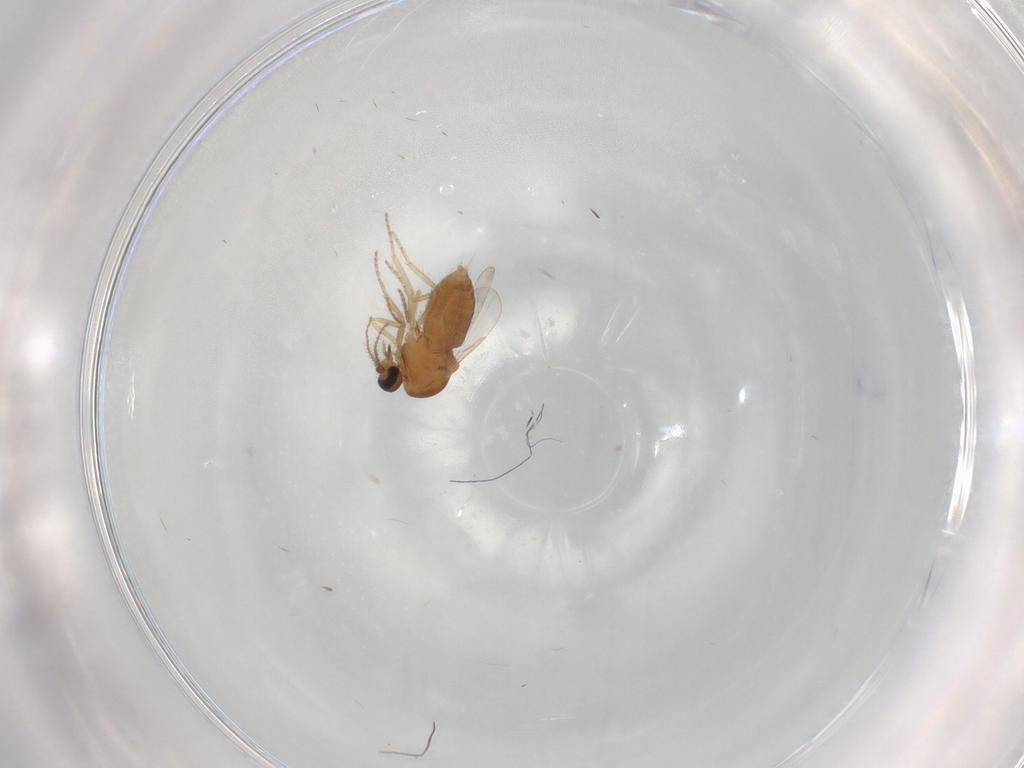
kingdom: Animalia
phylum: Arthropoda
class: Insecta
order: Diptera
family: Ceratopogonidae
